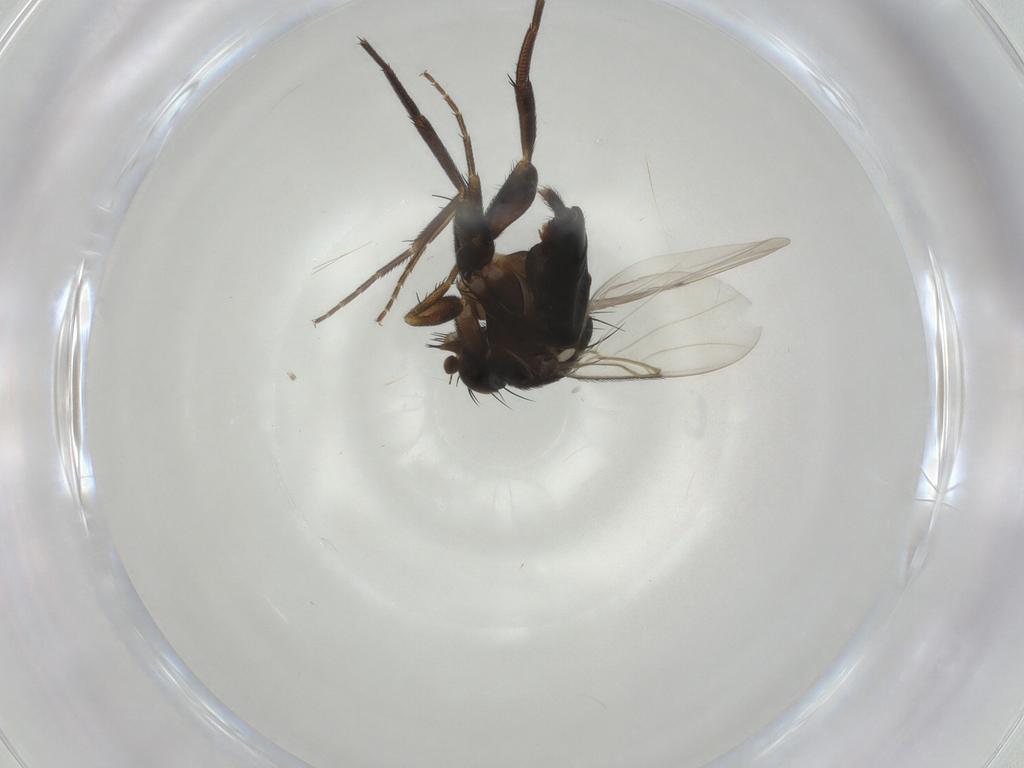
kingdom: Animalia
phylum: Arthropoda
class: Insecta
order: Diptera
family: Phoridae
